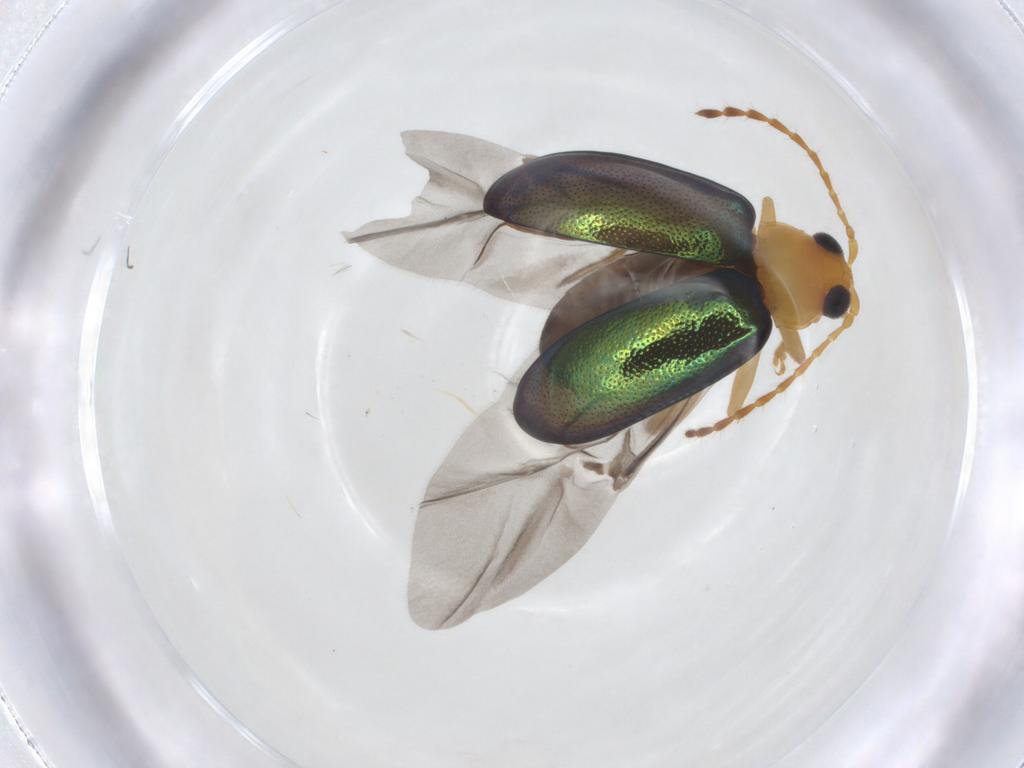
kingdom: Animalia
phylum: Arthropoda
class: Insecta
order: Coleoptera
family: Chrysomelidae
